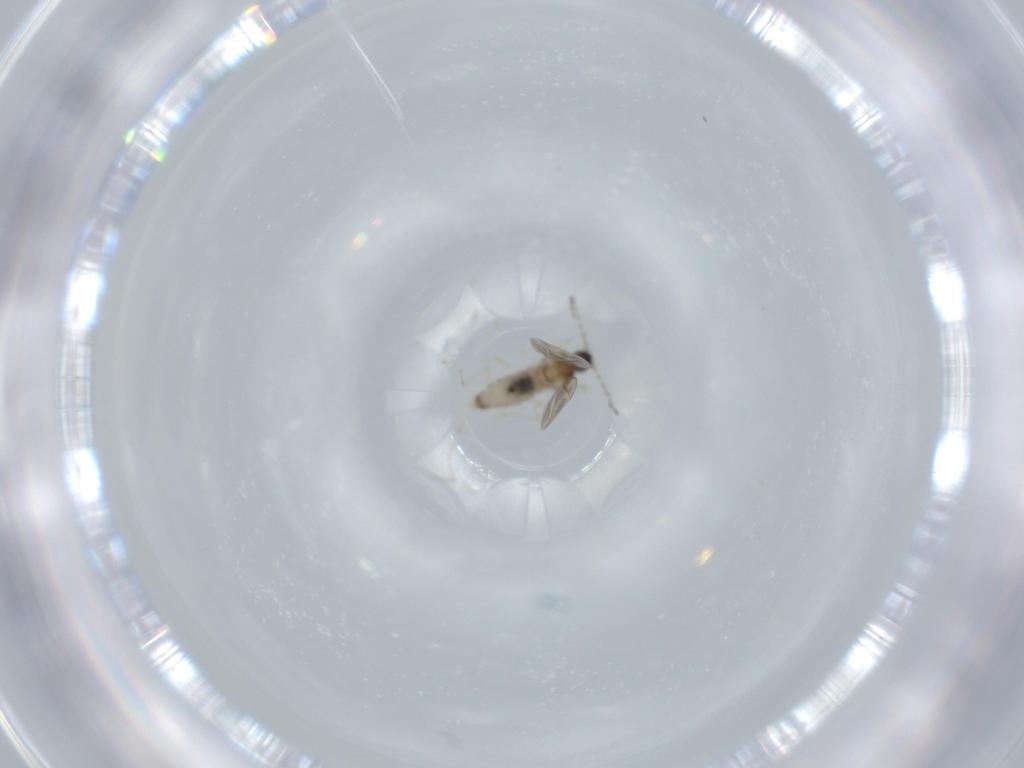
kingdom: Animalia
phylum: Arthropoda
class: Insecta
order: Diptera
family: Cecidomyiidae
